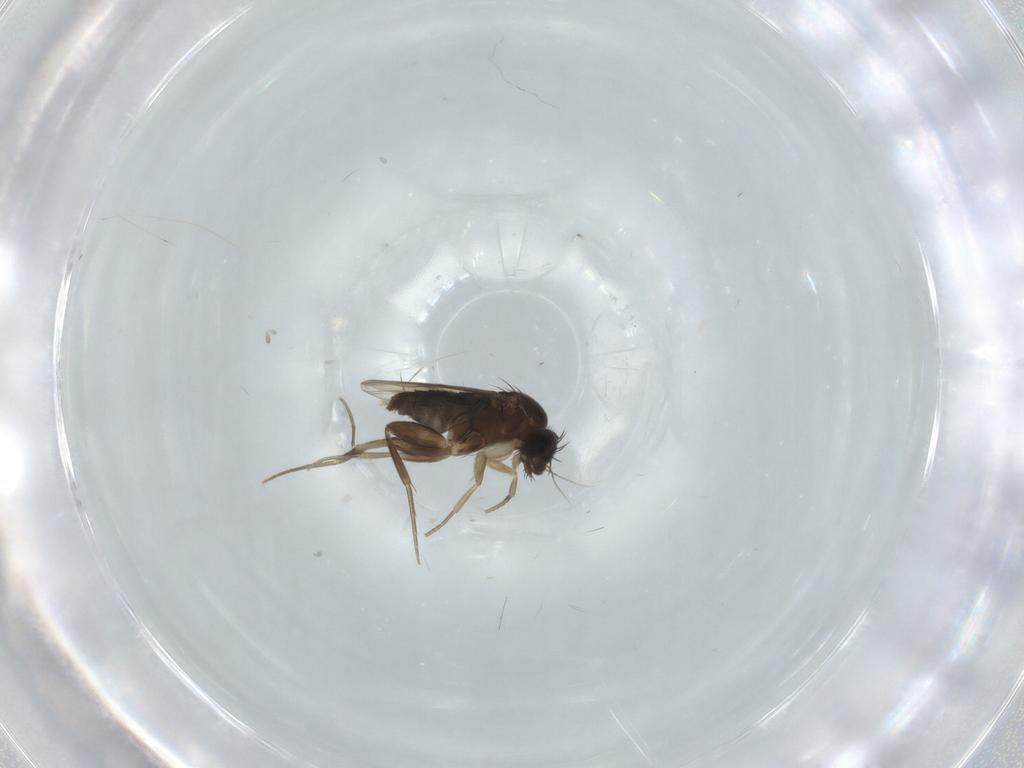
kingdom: Animalia
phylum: Arthropoda
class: Insecta
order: Diptera
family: Phoridae
